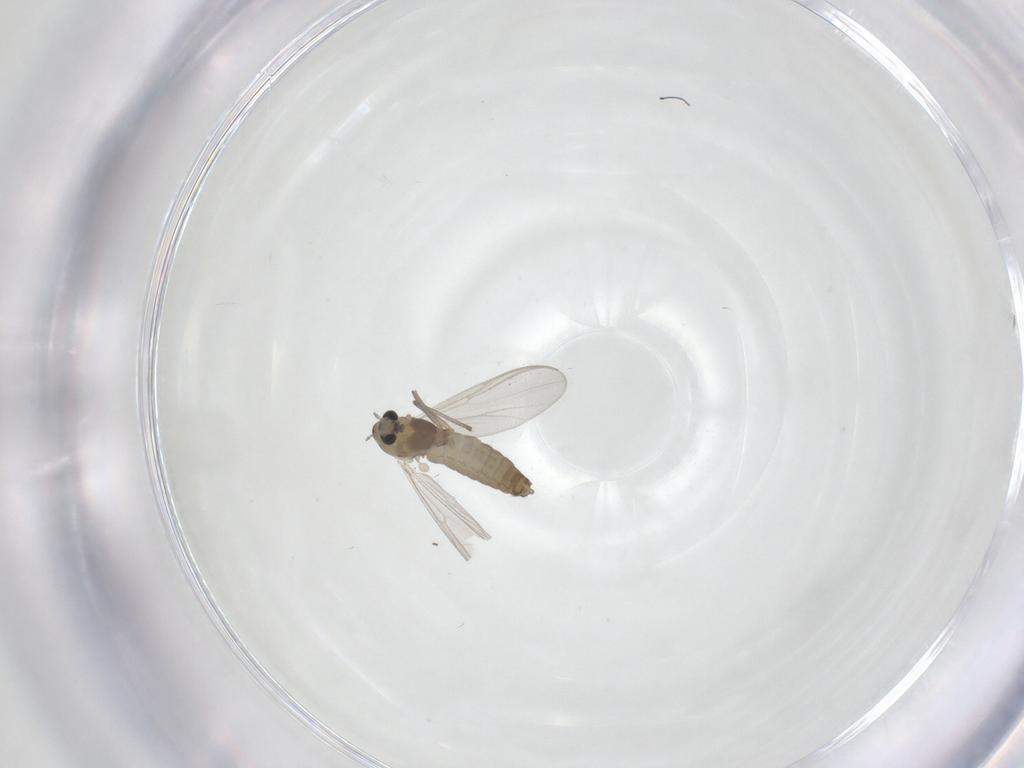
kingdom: Animalia
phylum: Arthropoda
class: Insecta
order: Diptera
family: Chironomidae
